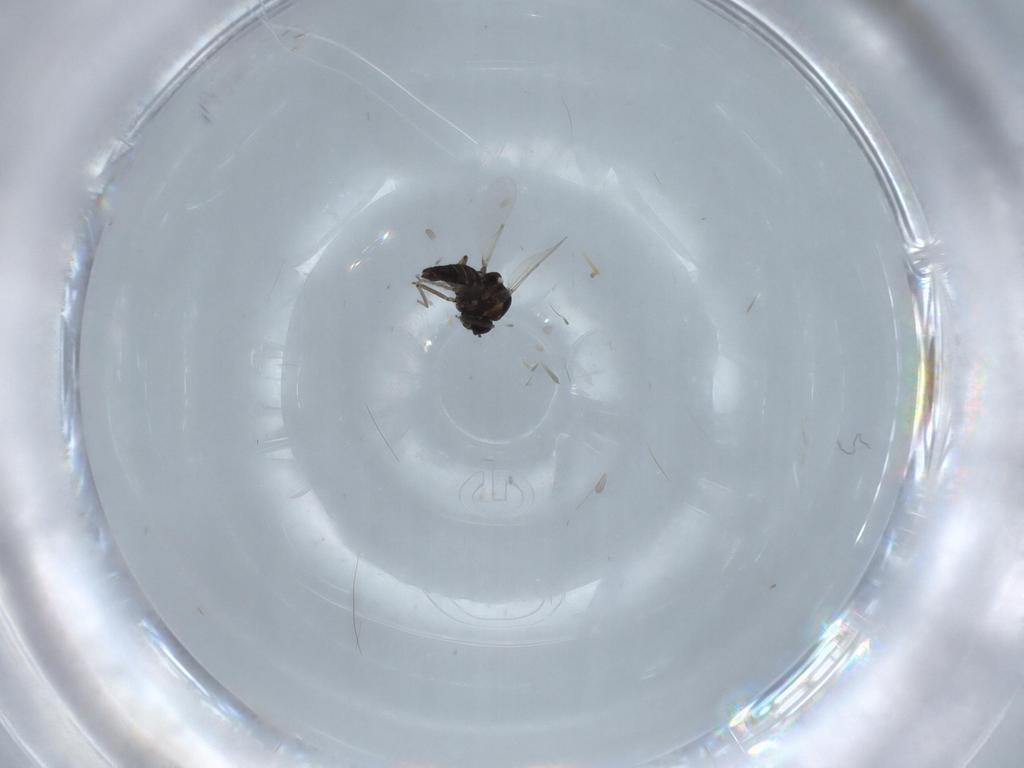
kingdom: Animalia
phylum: Arthropoda
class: Insecta
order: Diptera
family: Ceratopogonidae
